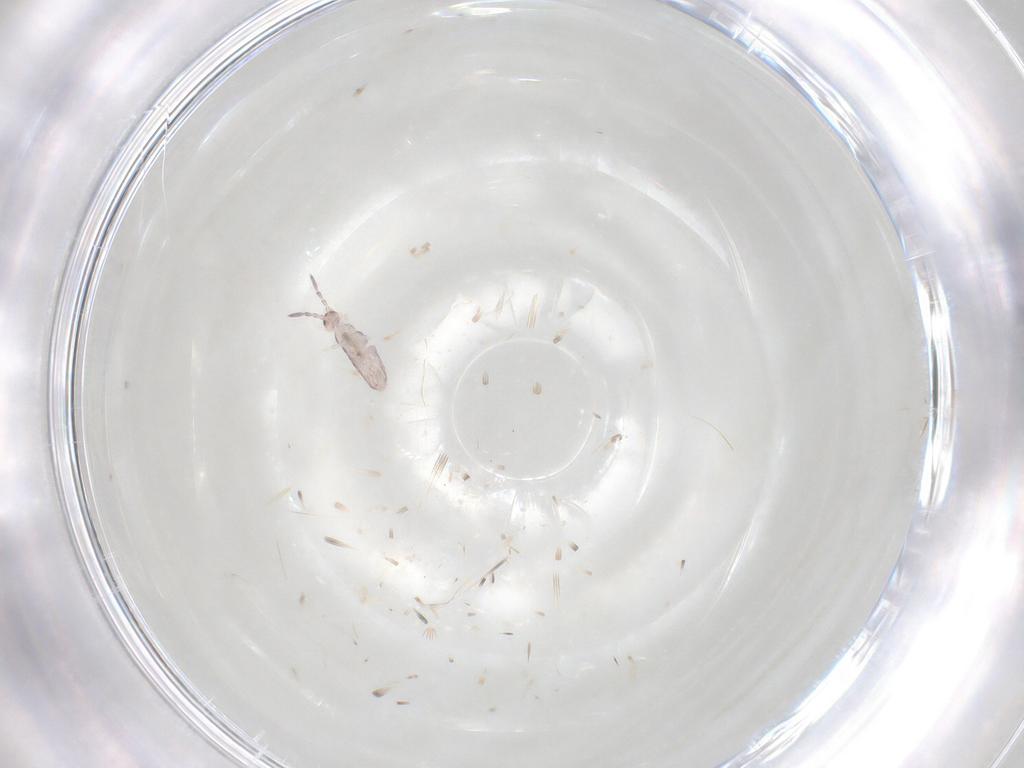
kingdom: Animalia
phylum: Arthropoda
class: Collembola
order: Entomobryomorpha
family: Entomobryidae
